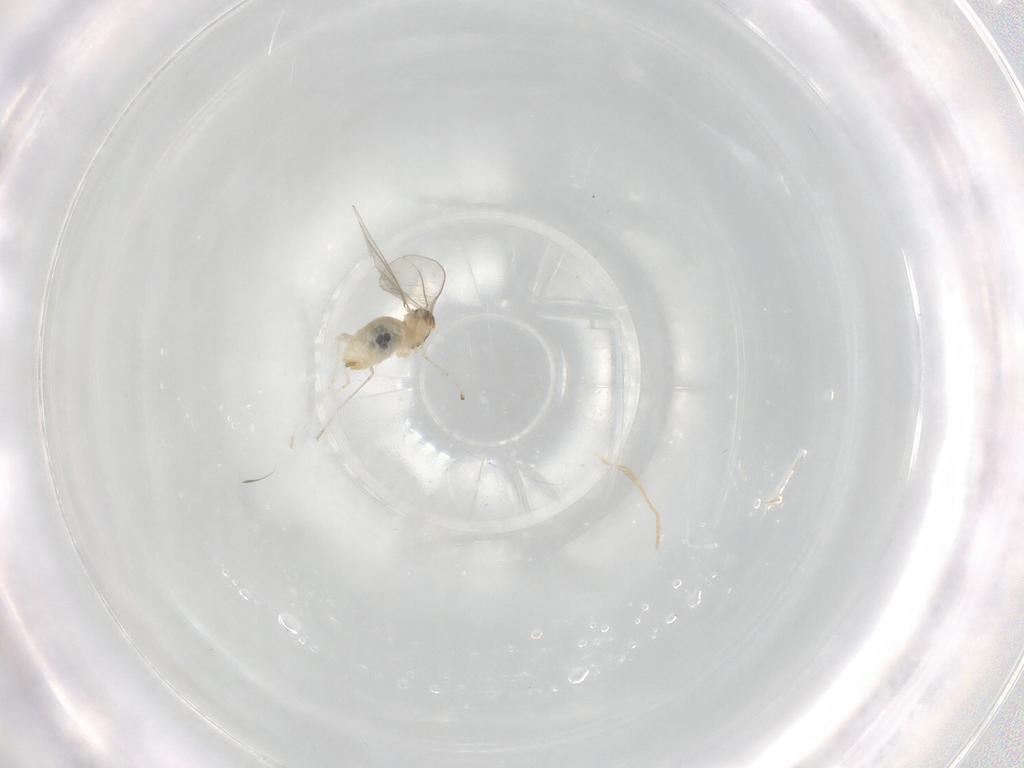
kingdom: Animalia
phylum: Arthropoda
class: Insecta
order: Diptera
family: Cecidomyiidae
